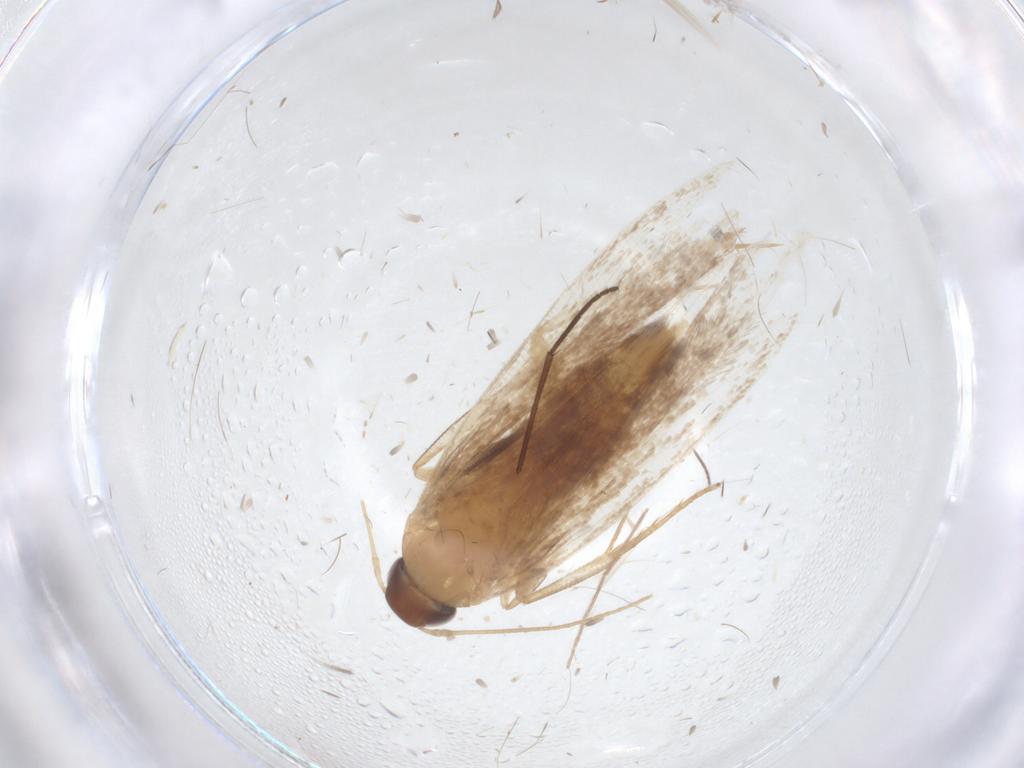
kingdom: Animalia
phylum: Arthropoda
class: Insecta
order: Lepidoptera
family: Gelechiidae
